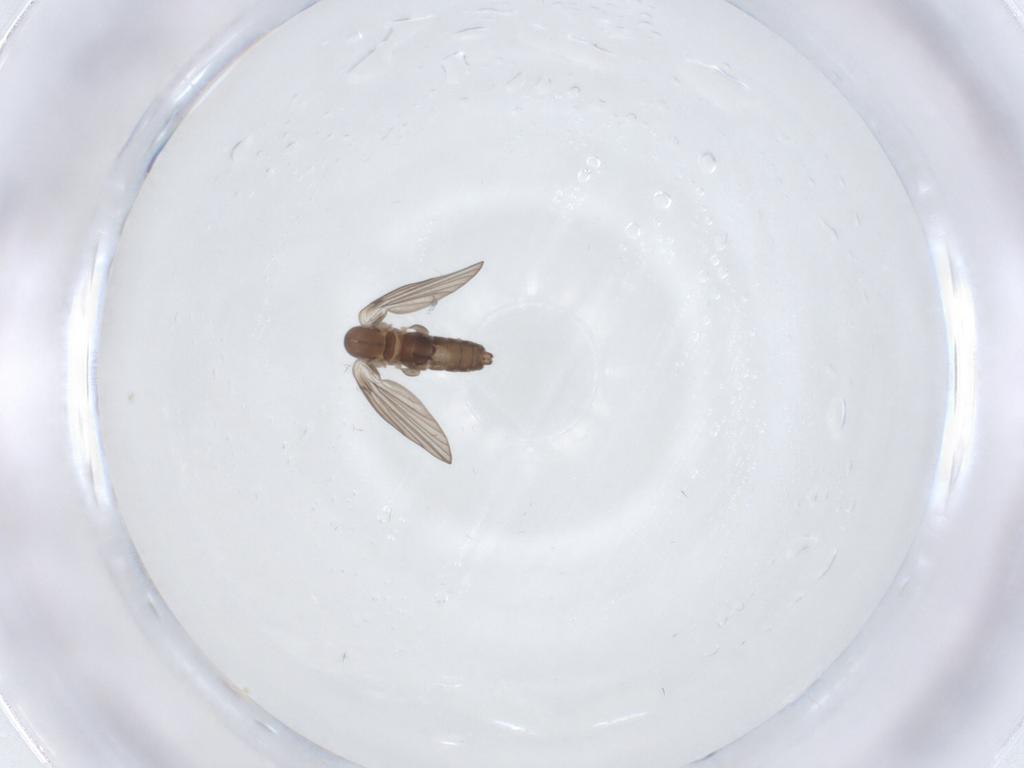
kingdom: Animalia
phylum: Arthropoda
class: Insecta
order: Diptera
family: Psychodidae
